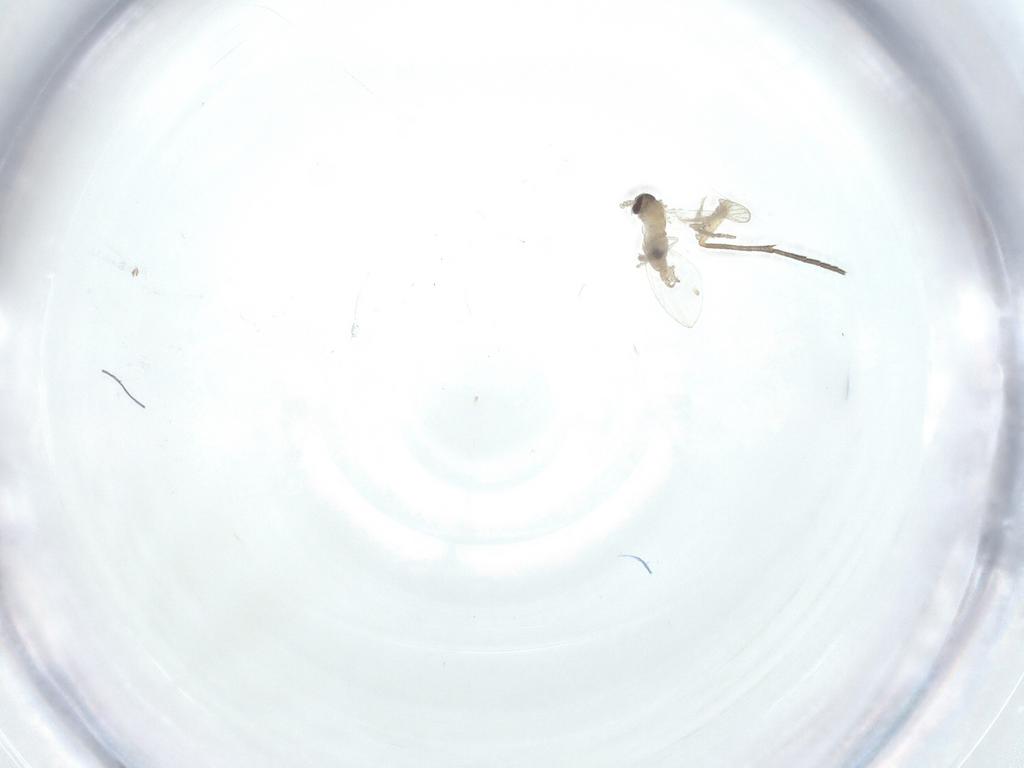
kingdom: Animalia
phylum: Arthropoda
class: Insecta
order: Diptera
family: Psychodidae
